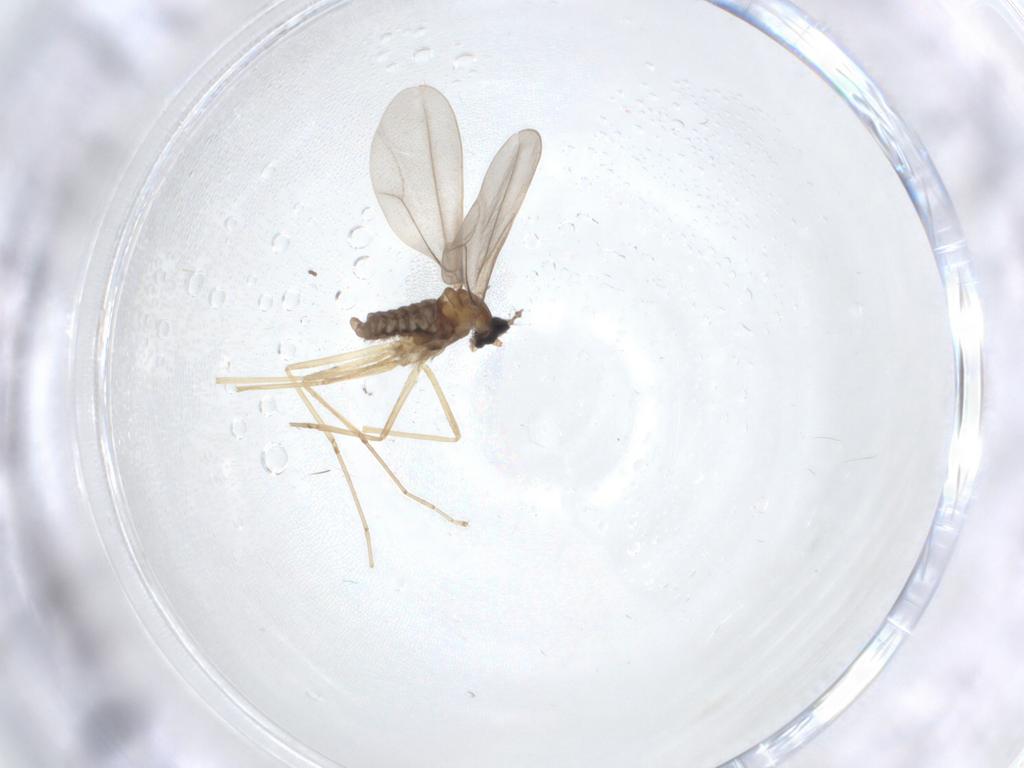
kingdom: Animalia
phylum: Arthropoda
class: Insecta
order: Diptera
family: Cecidomyiidae
